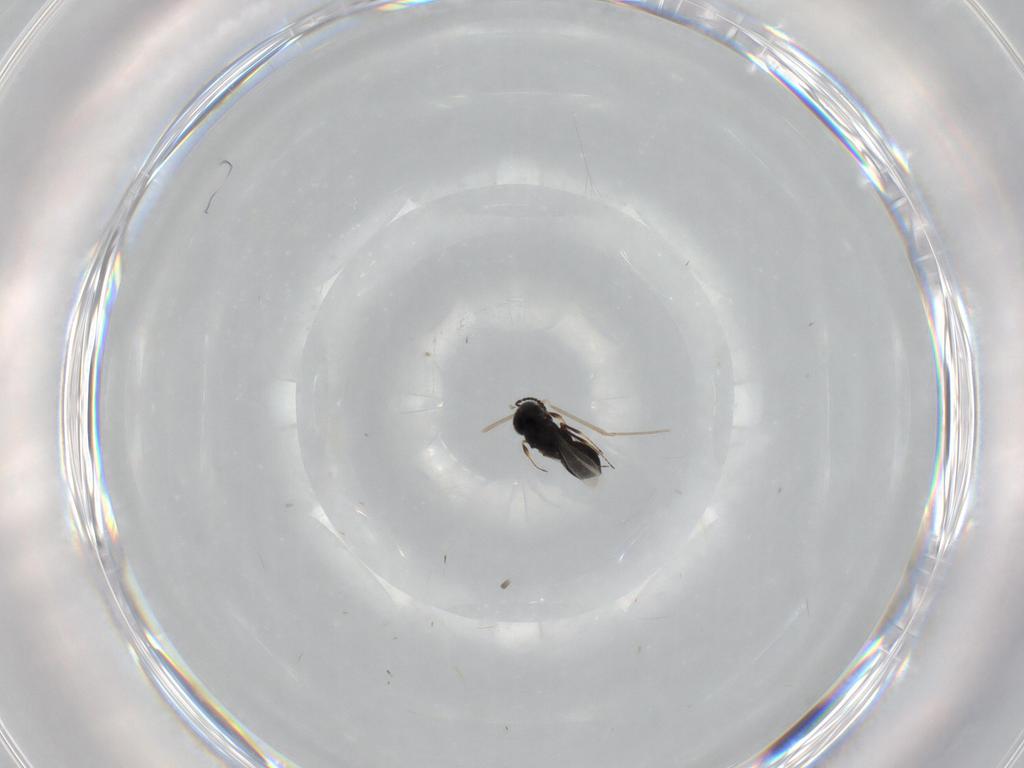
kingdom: Animalia
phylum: Arthropoda
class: Insecta
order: Hymenoptera
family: Scelionidae
